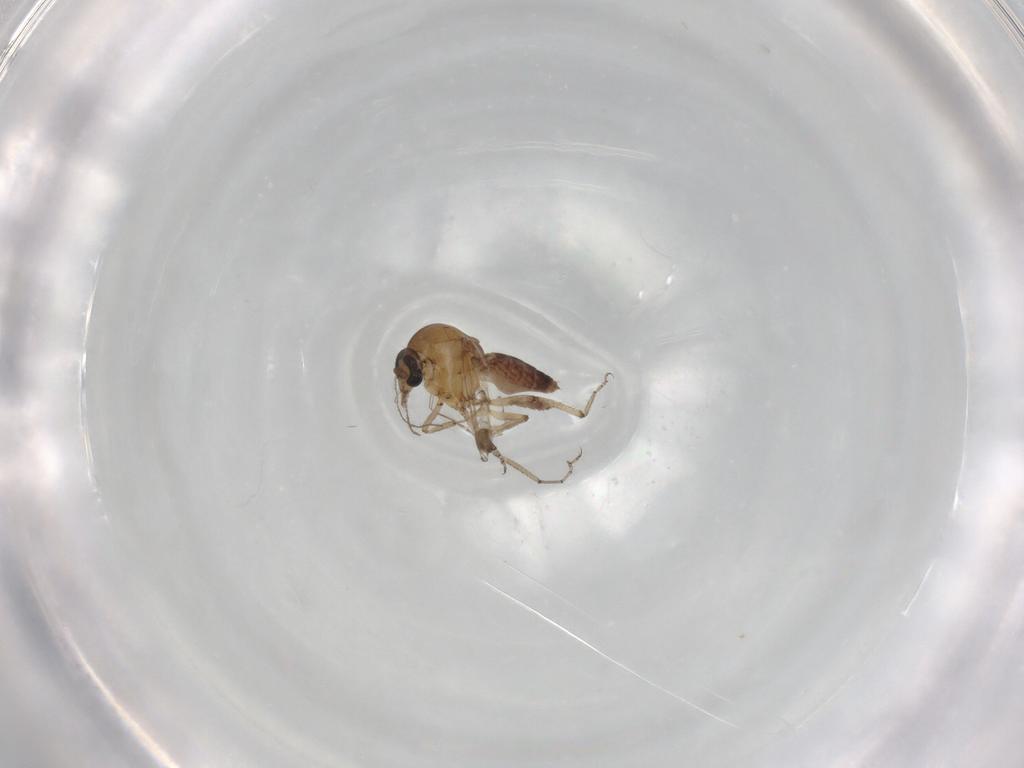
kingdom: Animalia
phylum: Arthropoda
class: Insecta
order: Diptera
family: Ceratopogonidae
